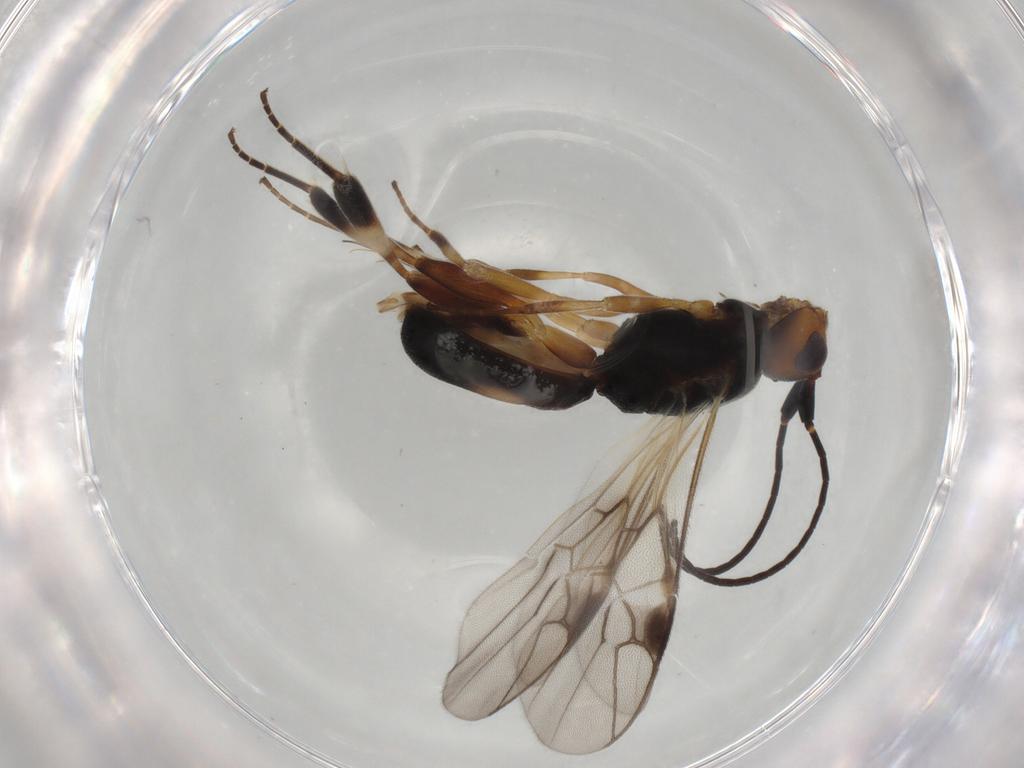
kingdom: Animalia
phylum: Arthropoda
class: Insecta
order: Hymenoptera
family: Braconidae
